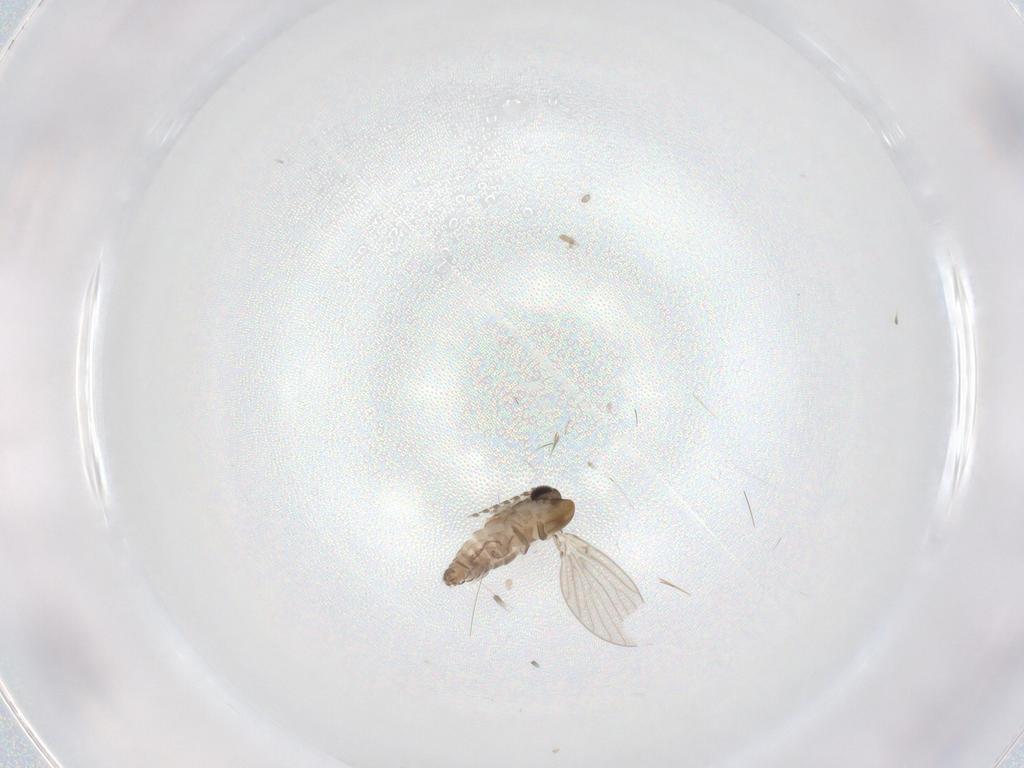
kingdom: Animalia
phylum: Arthropoda
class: Insecta
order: Diptera
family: Psychodidae
